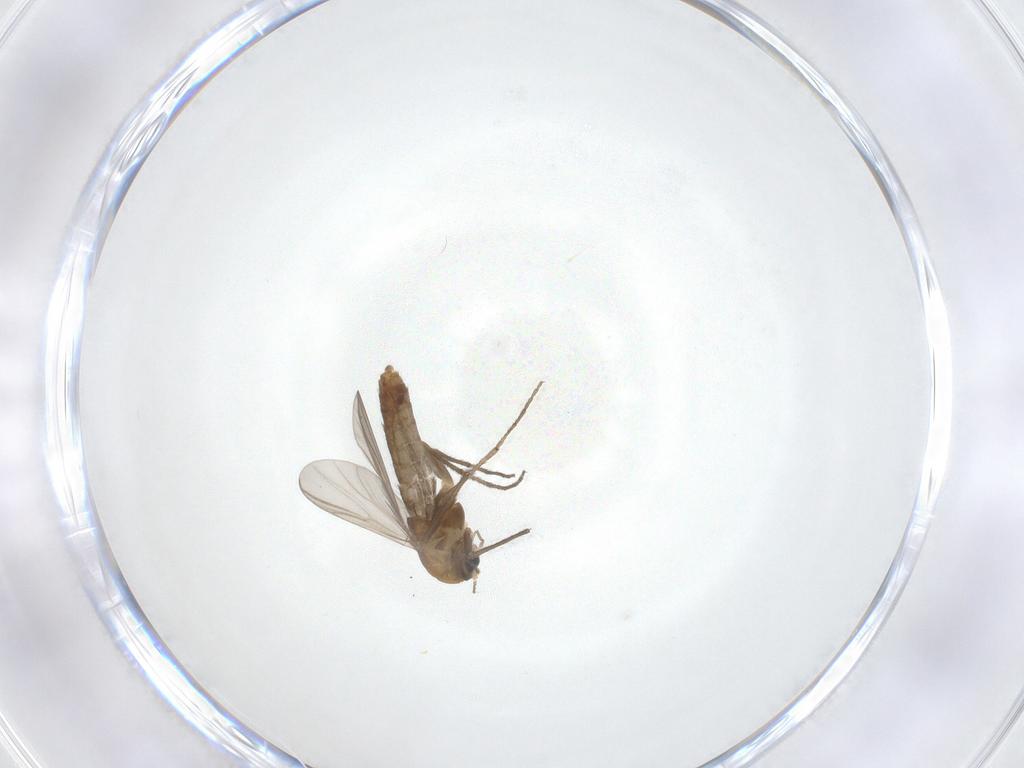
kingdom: Animalia
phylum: Arthropoda
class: Insecta
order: Diptera
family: Chironomidae
